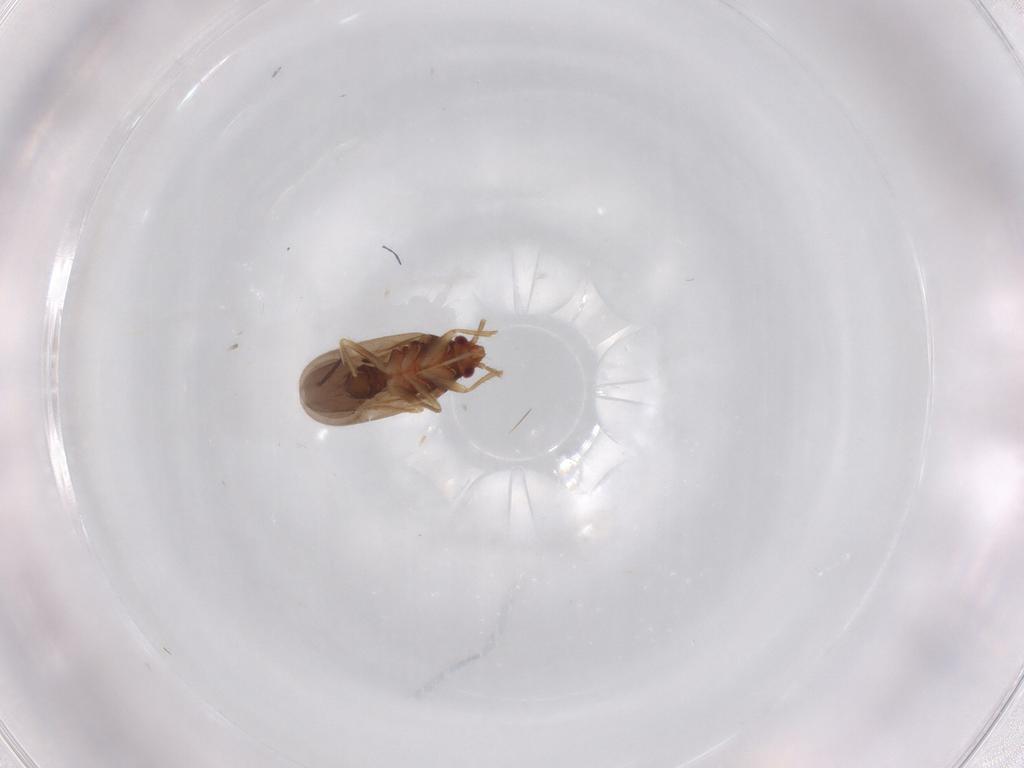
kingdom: Animalia
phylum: Arthropoda
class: Insecta
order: Hemiptera
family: Ceratocombidae
